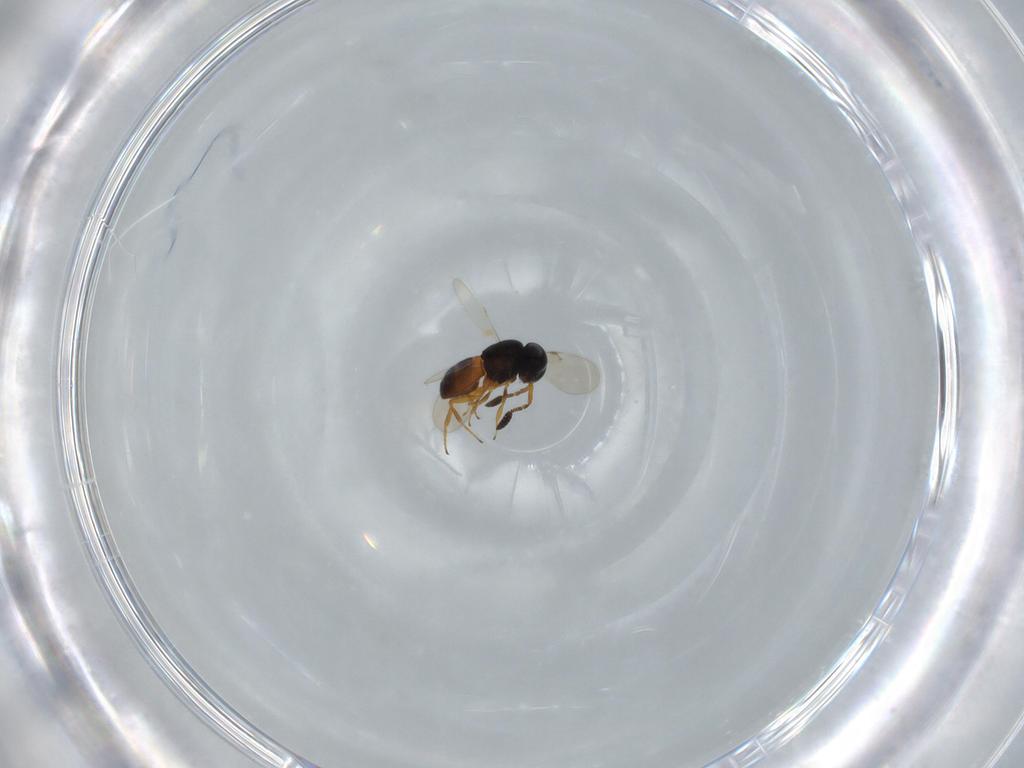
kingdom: Animalia
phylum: Arthropoda
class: Insecta
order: Hymenoptera
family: Scelionidae
